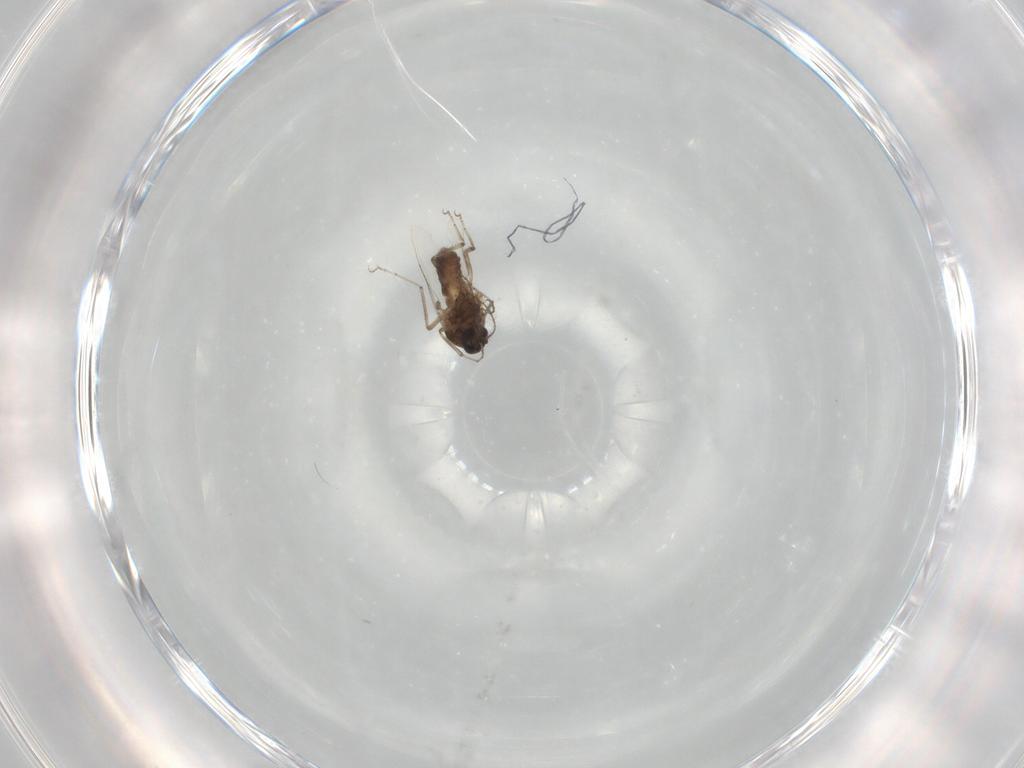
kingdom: Animalia
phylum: Arthropoda
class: Insecta
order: Diptera
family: Ceratopogonidae
